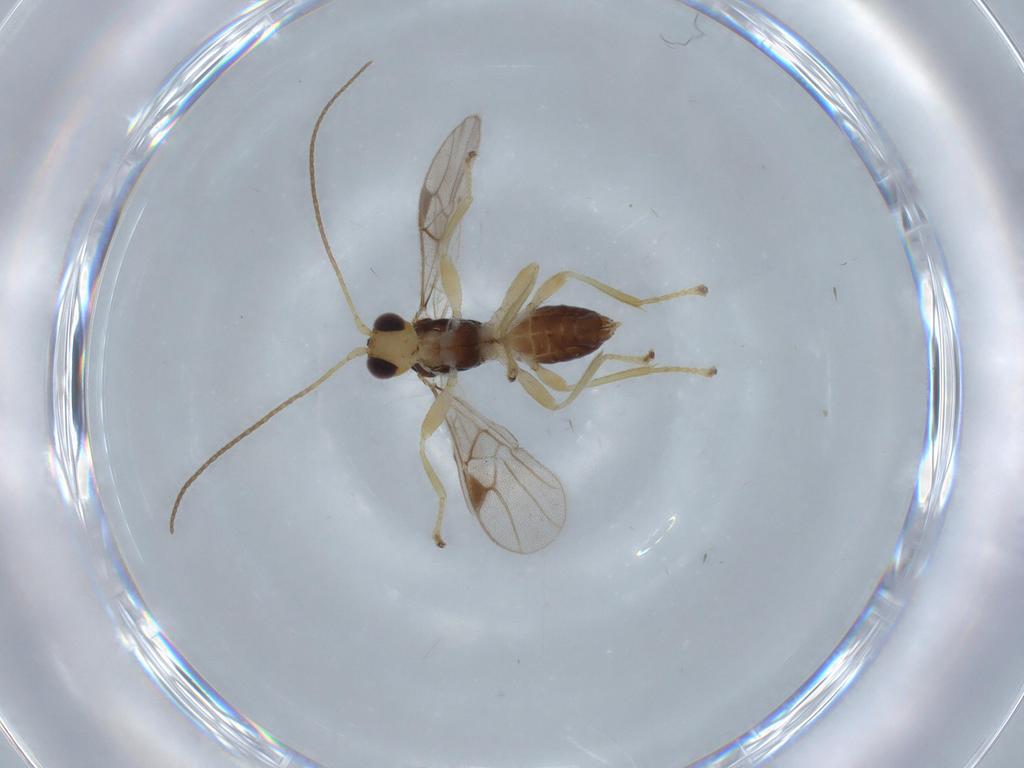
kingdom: Animalia
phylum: Arthropoda
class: Insecta
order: Hymenoptera
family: Braconidae
